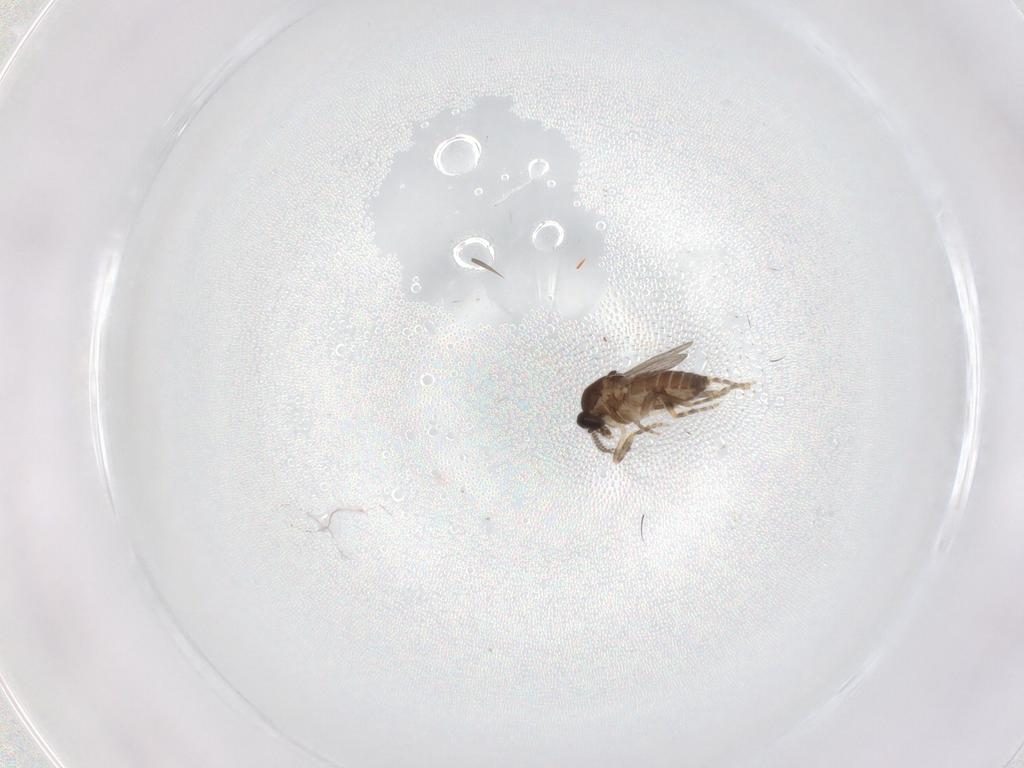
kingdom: Animalia
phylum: Arthropoda
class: Insecta
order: Diptera
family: Ceratopogonidae
